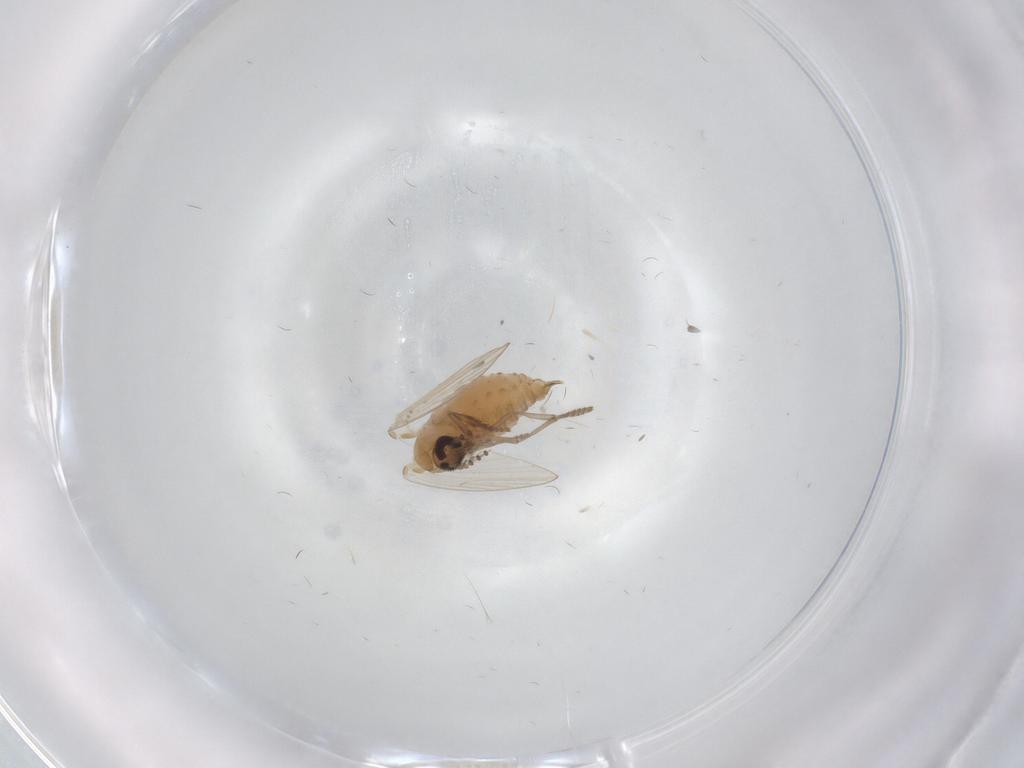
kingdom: Animalia
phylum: Arthropoda
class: Insecta
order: Diptera
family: Psychodidae
